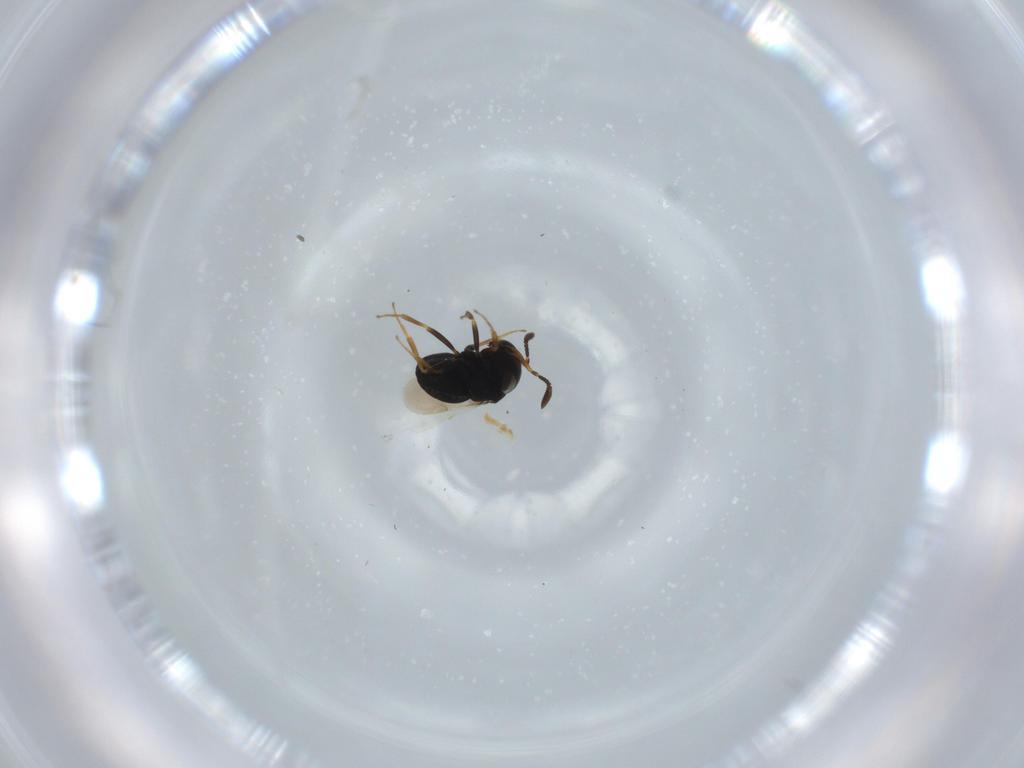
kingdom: Animalia
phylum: Arthropoda
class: Insecta
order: Hymenoptera
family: Scelionidae
